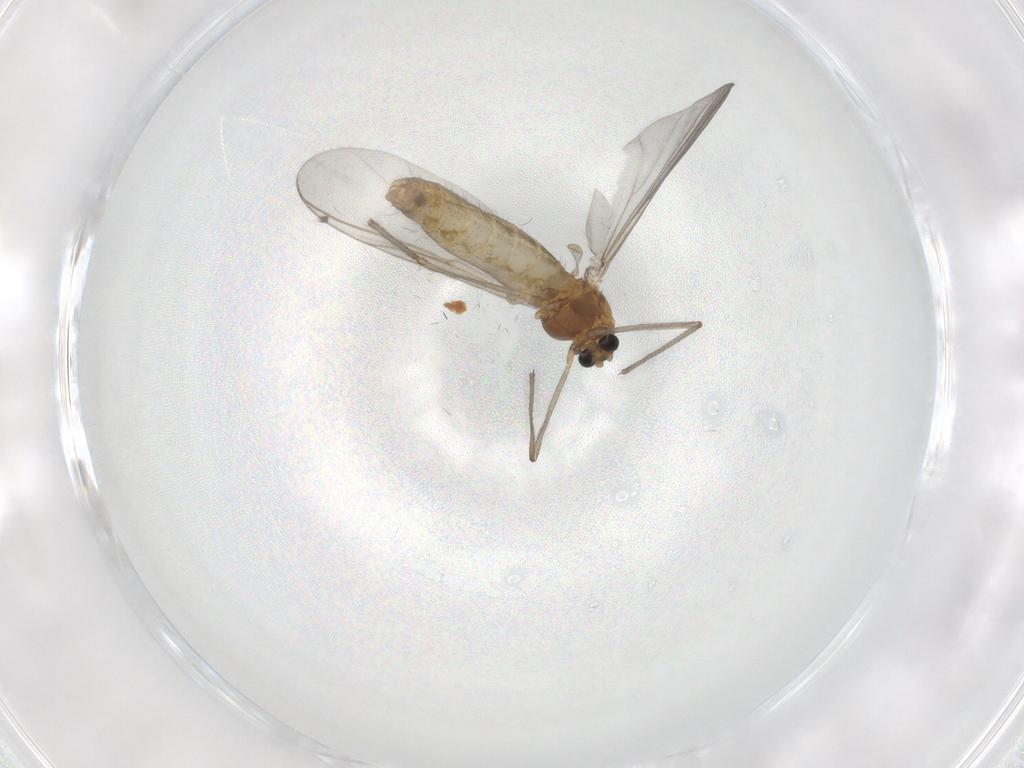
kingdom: Animalia
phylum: Arthropoda
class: Insecta
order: Diptera
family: Chironomidae
